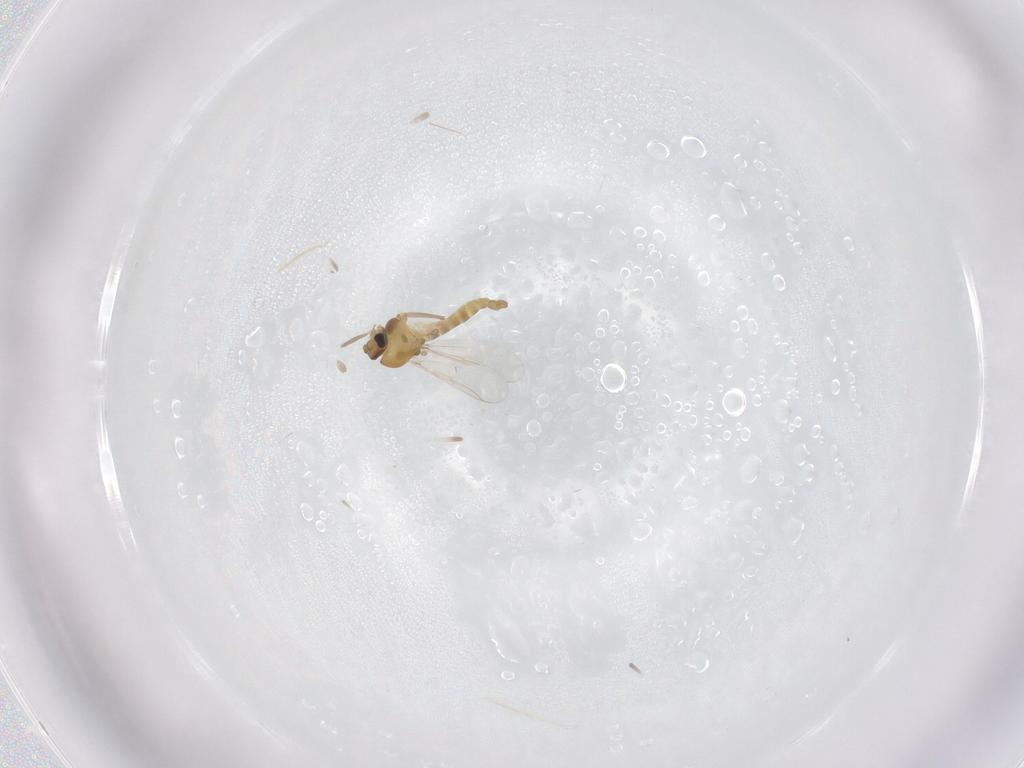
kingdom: Animalia
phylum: Arthropoda
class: Insecta
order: Diptera
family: Chironomidae
